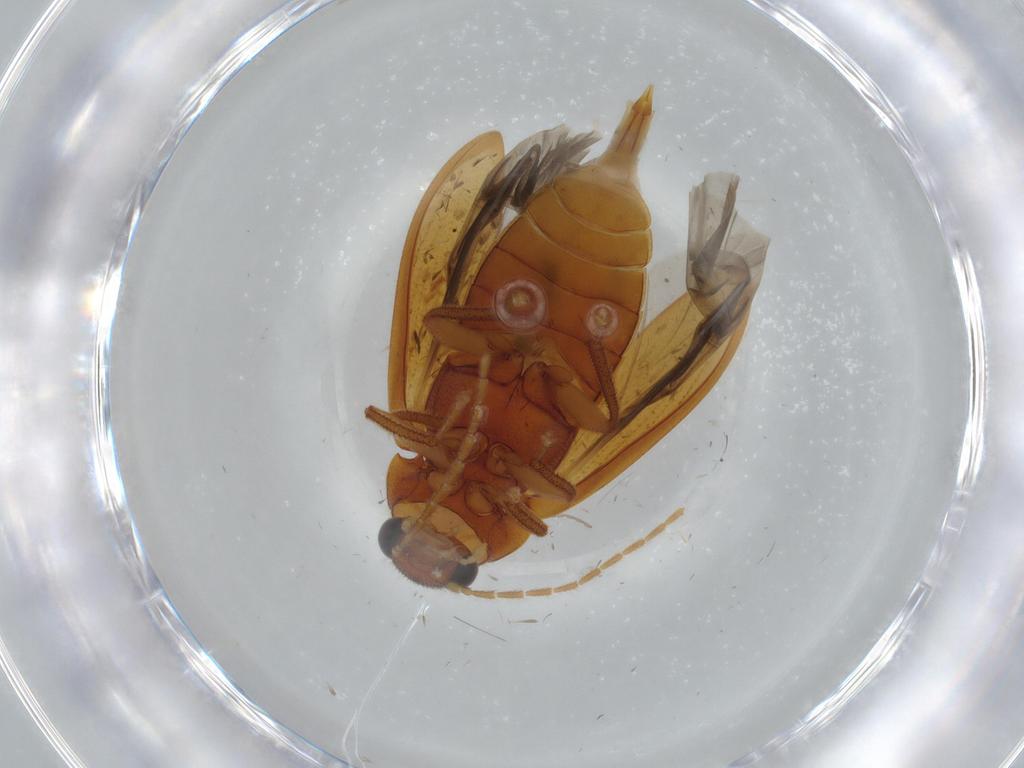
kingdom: Animalia
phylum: Arthropoda
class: Insecta
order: Coleoptera
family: Ptilodactylidae
